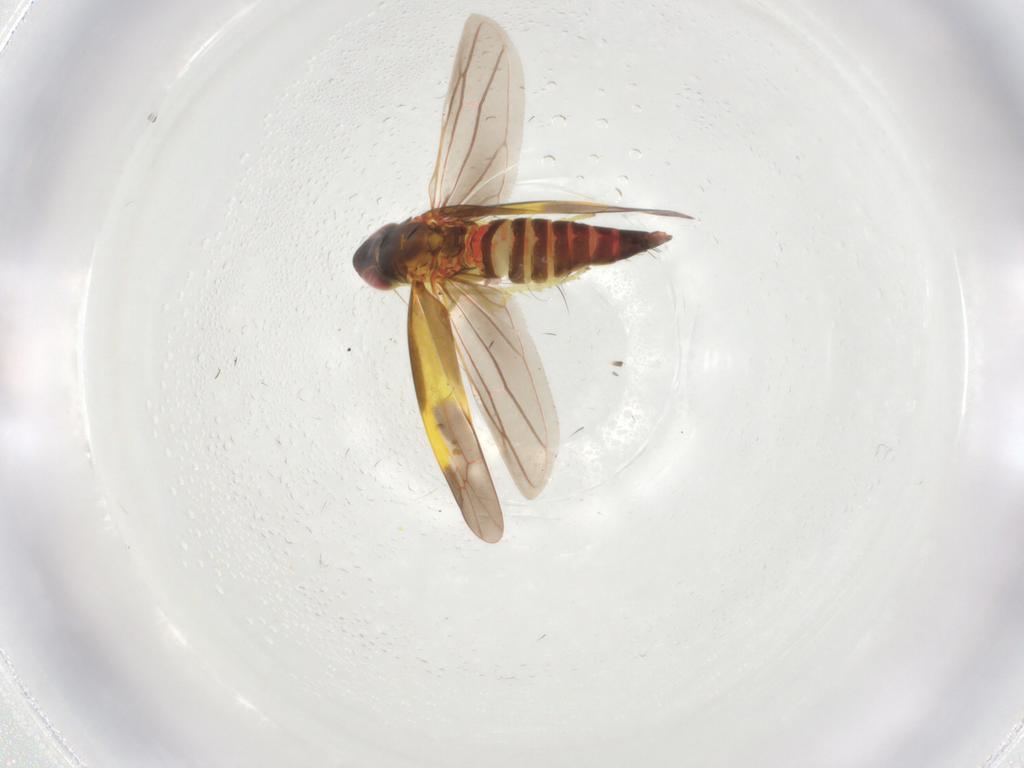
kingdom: Animalia
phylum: Arthropoda
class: Insecta
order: Hemiptera
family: Cicadellidae
